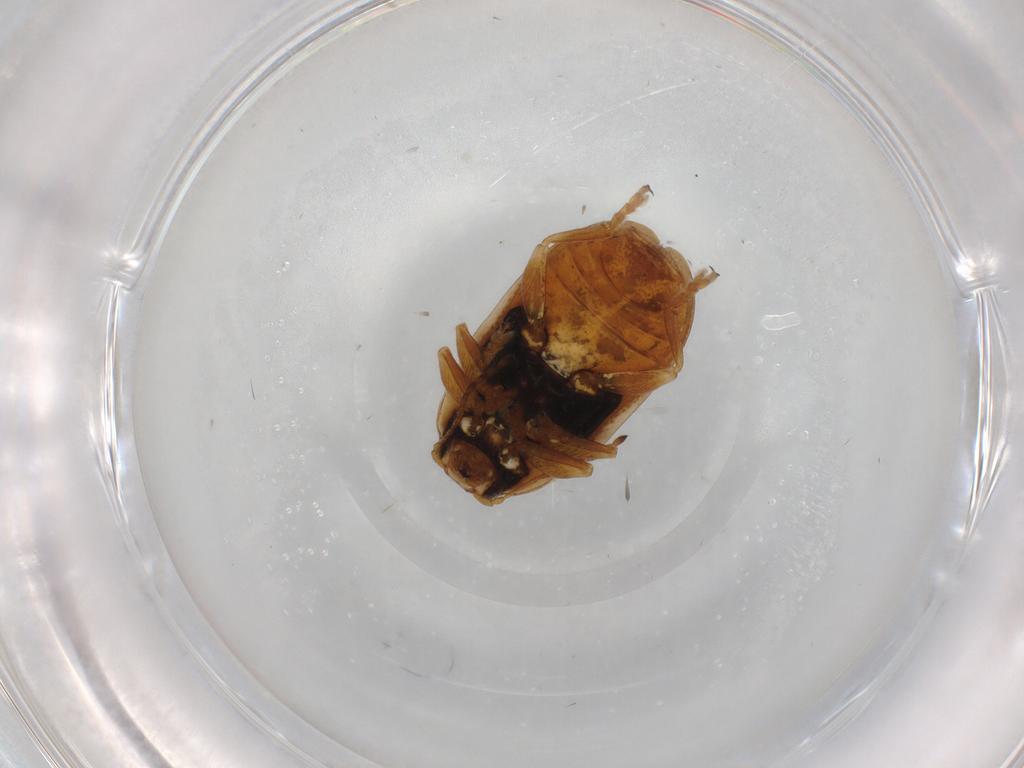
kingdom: Animalia
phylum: Arthropoda
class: Insecta
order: Coleoptera
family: Chrysomelidae
